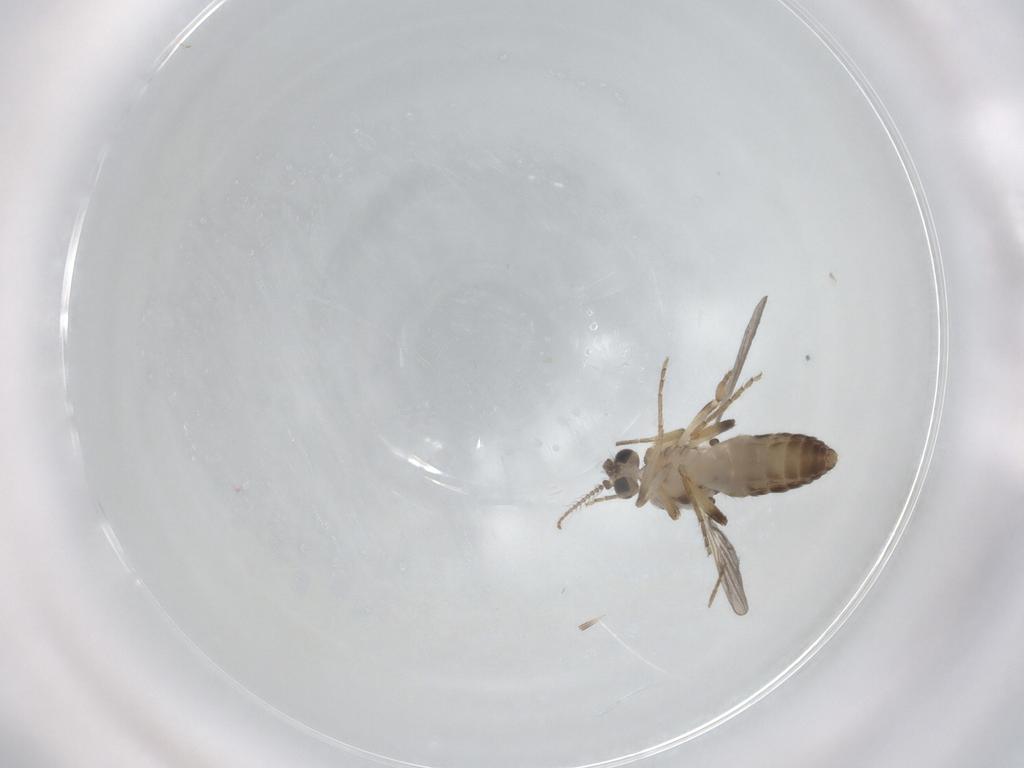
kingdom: Animalia
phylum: Arthropoda
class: Insecta
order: Diptera
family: Ceratopogonidae
